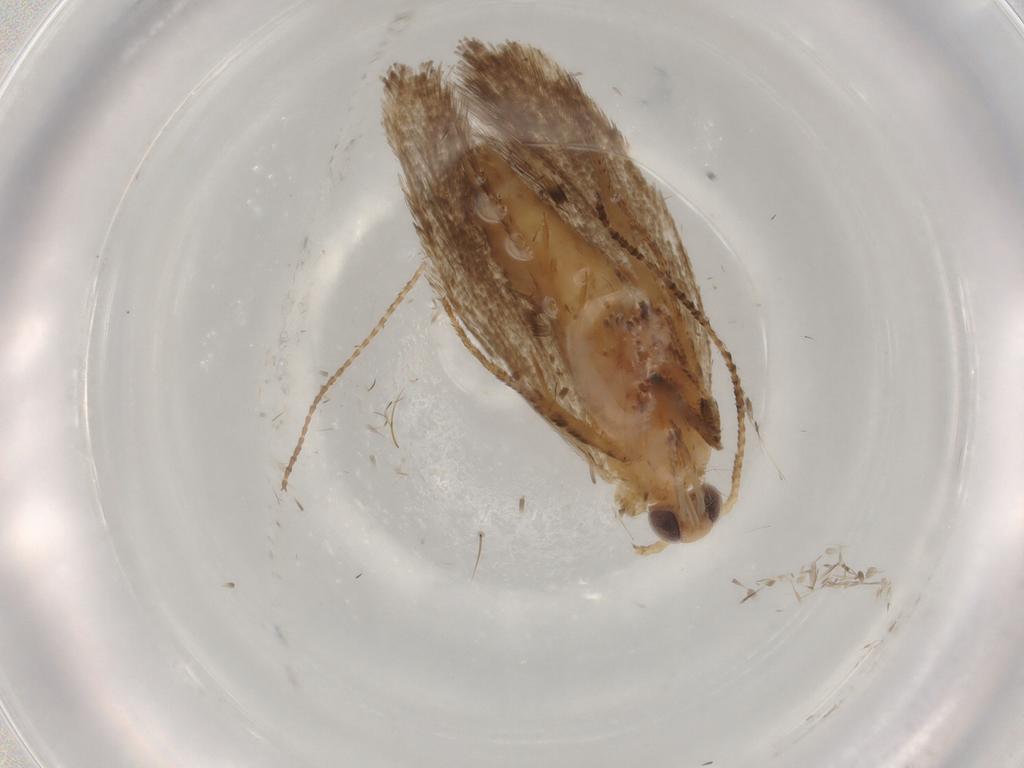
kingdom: Animalia
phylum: Arthropoda
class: Insecta
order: Lepidoptera
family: Ypsolophidae
